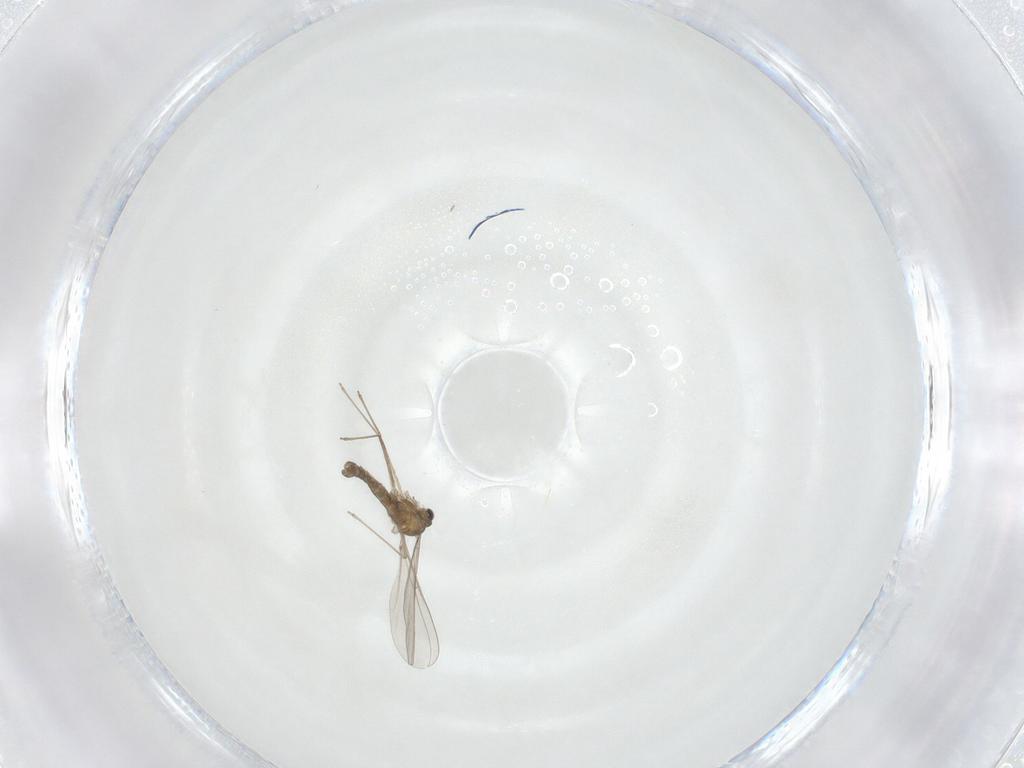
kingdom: Animalia
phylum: Arthropoda
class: Insecta
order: Diptera
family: Cecidomyiidae
